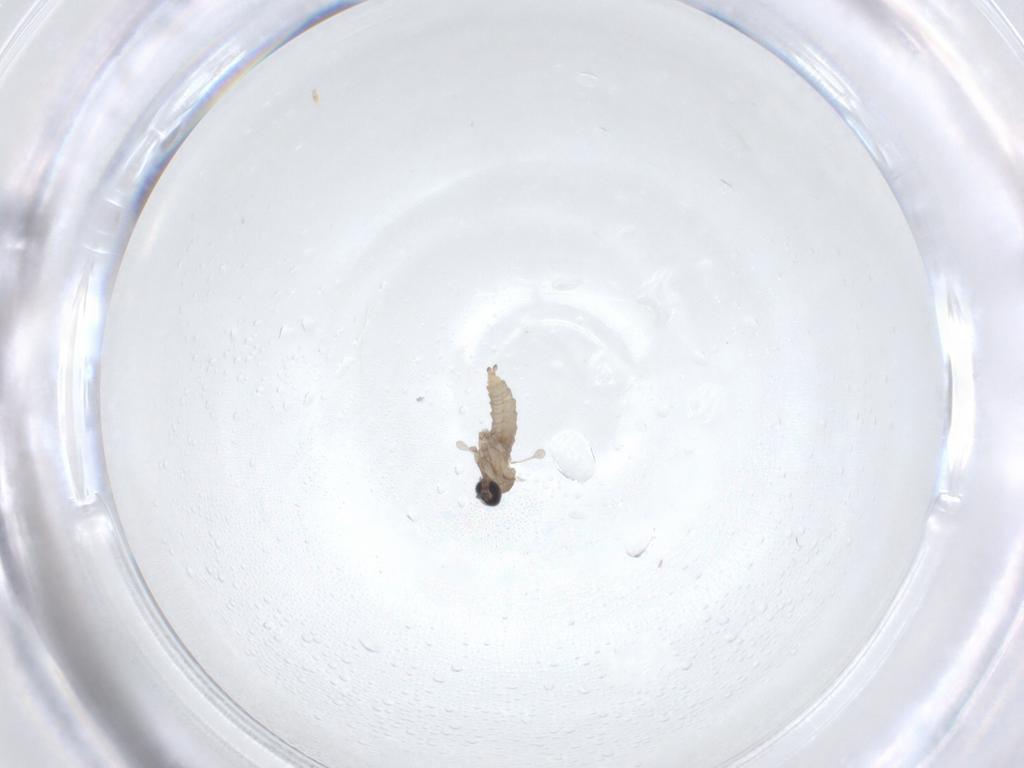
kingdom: Animalia
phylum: Arthropoda
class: Insecta
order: Diptera
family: Cecidomyiidae
